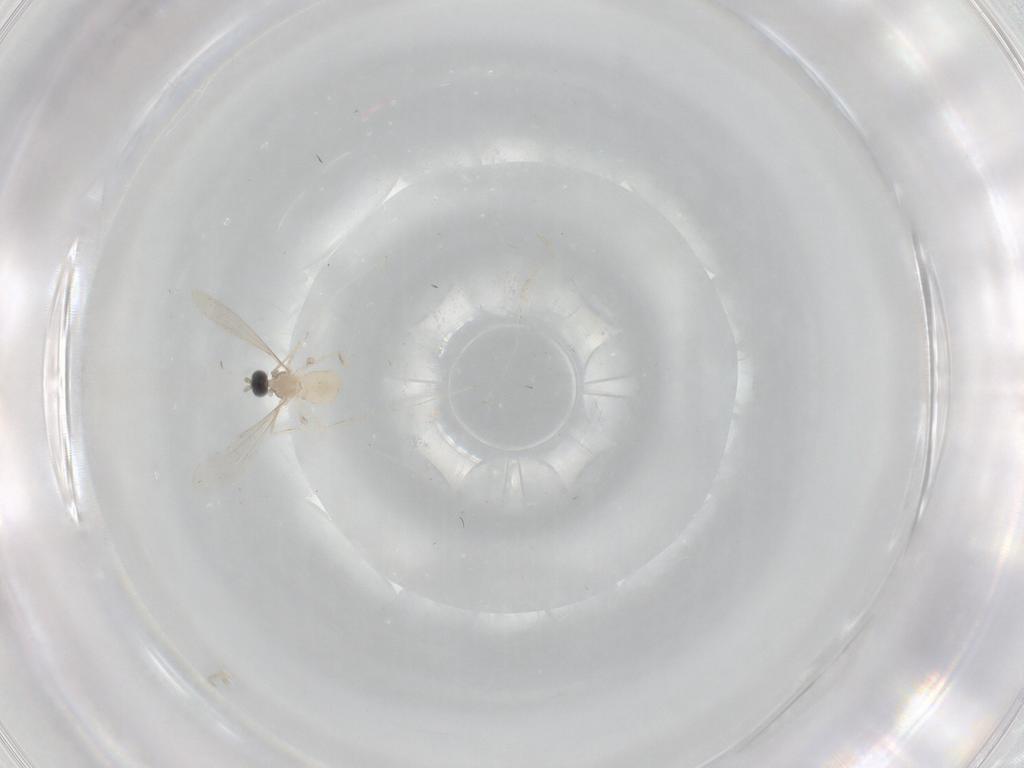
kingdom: Animalia
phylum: Arthropoda
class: Insecta
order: Diptera
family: Cecidomyiidae
